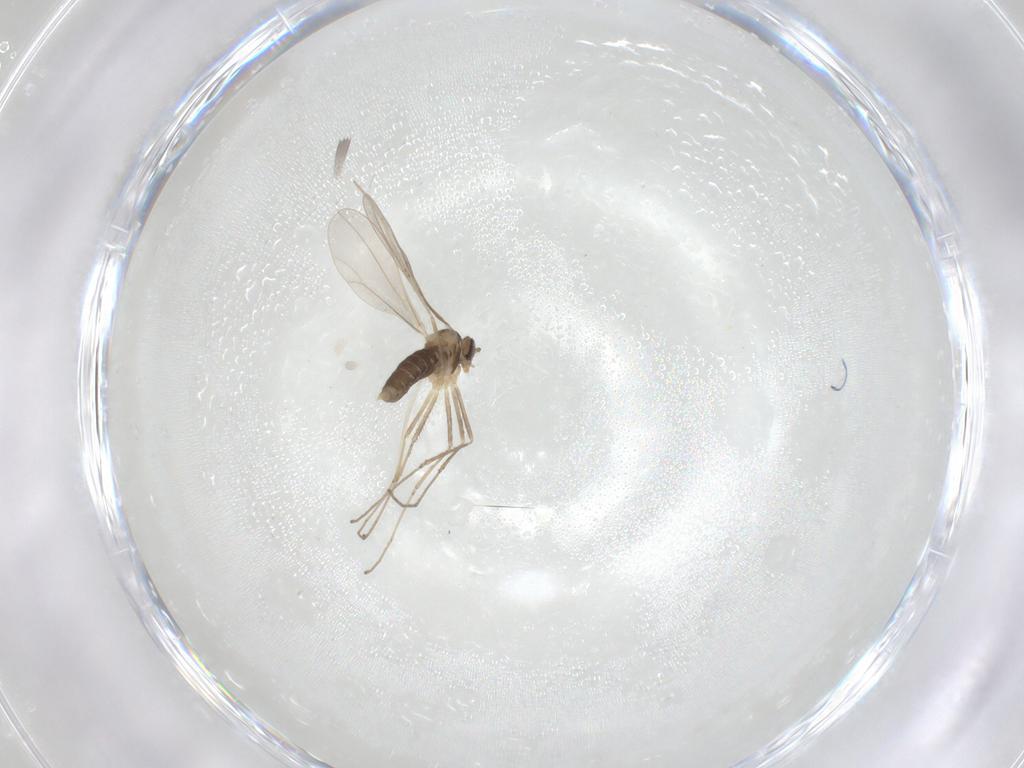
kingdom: Animalia
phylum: Arthropoda
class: Insecta
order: Diptera
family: Cecidomyiidae
